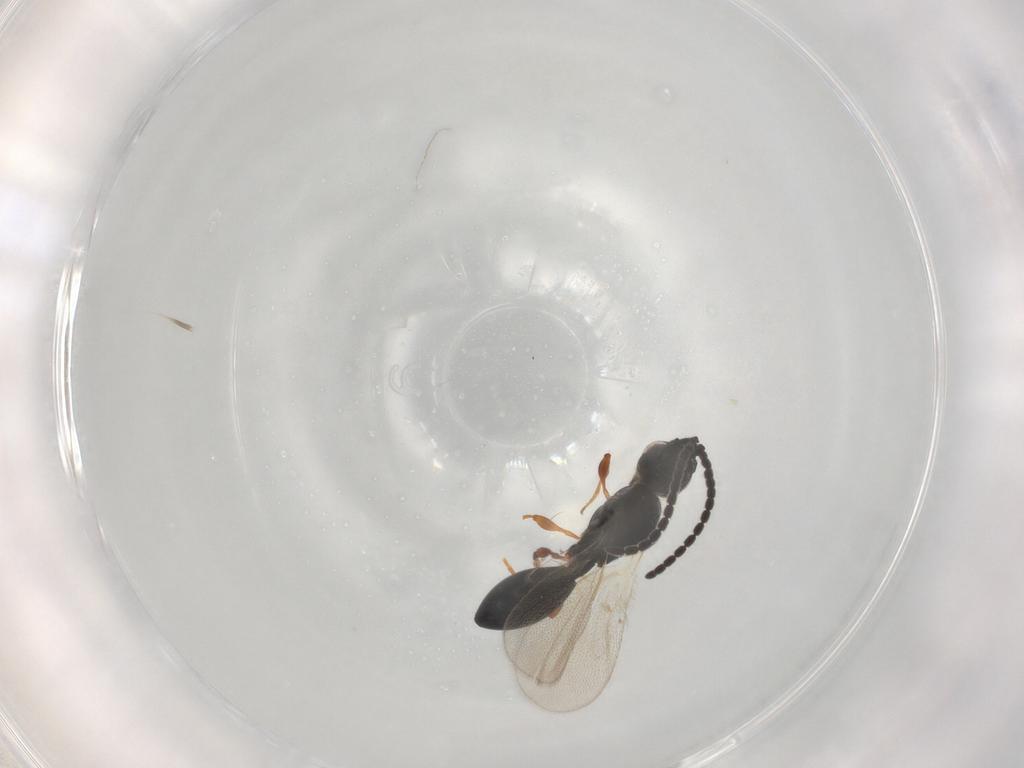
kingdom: Animalia
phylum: Arthropoda
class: Insecta
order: Hymenoptera
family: Diapriidae
